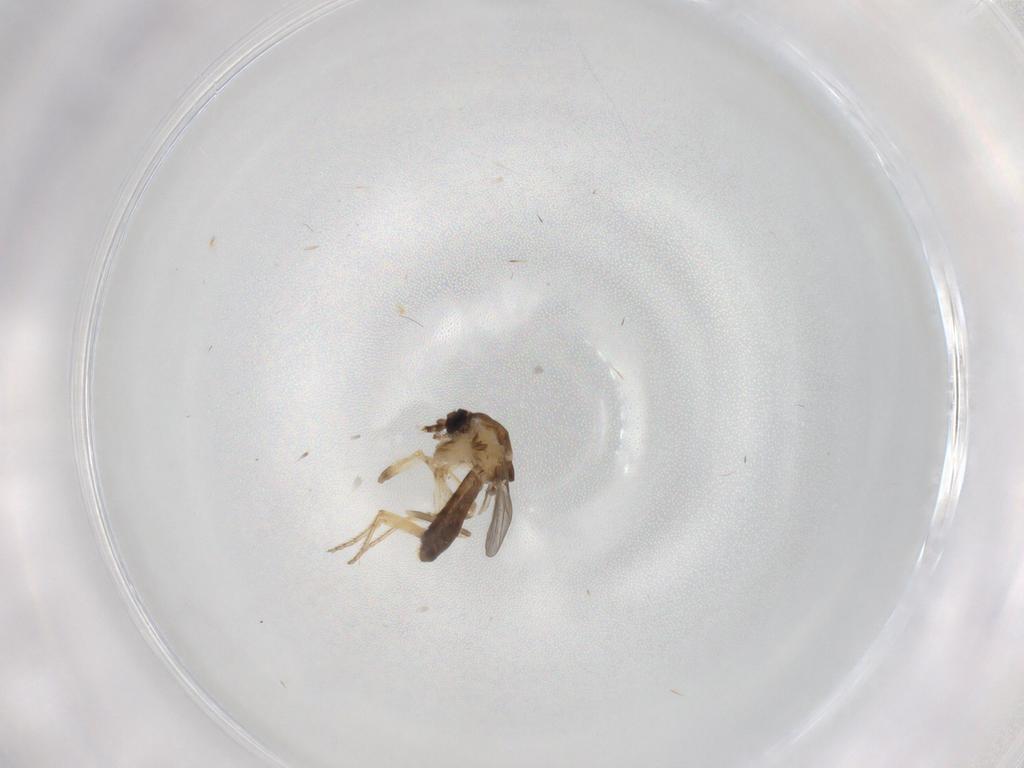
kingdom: Animalia
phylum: Arthropoda
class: Insecta
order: Diptera
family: Ceratopogonidae
